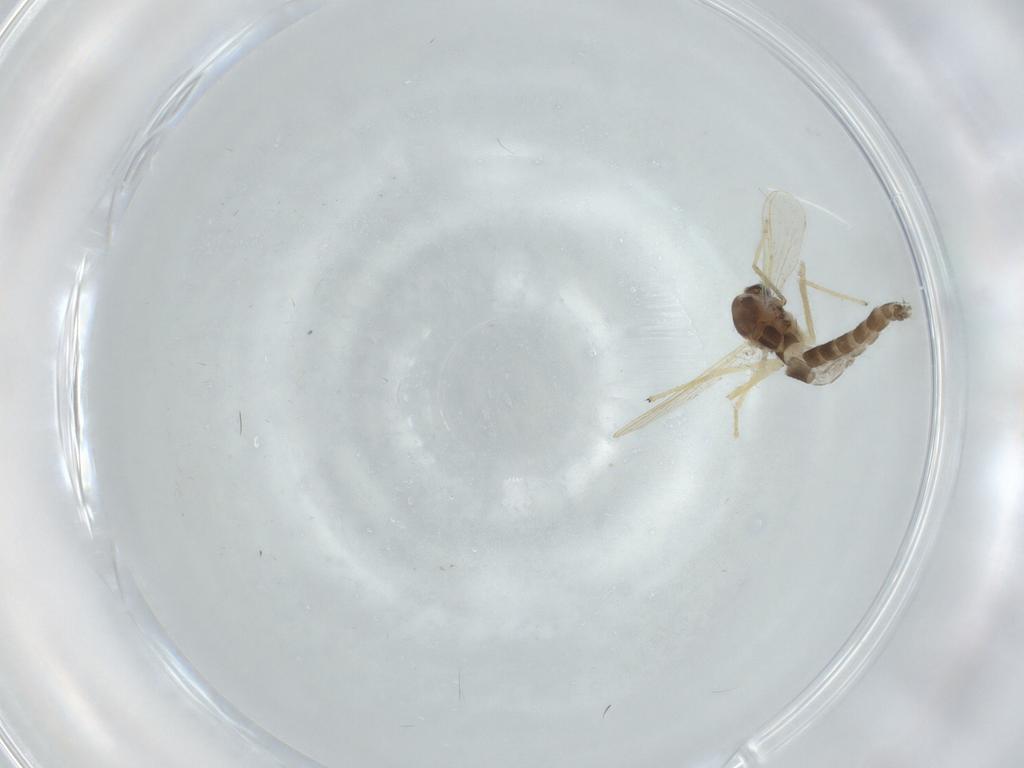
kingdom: Animalia
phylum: Arthropoda
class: Insecta
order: Diptera
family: Chironomidae
